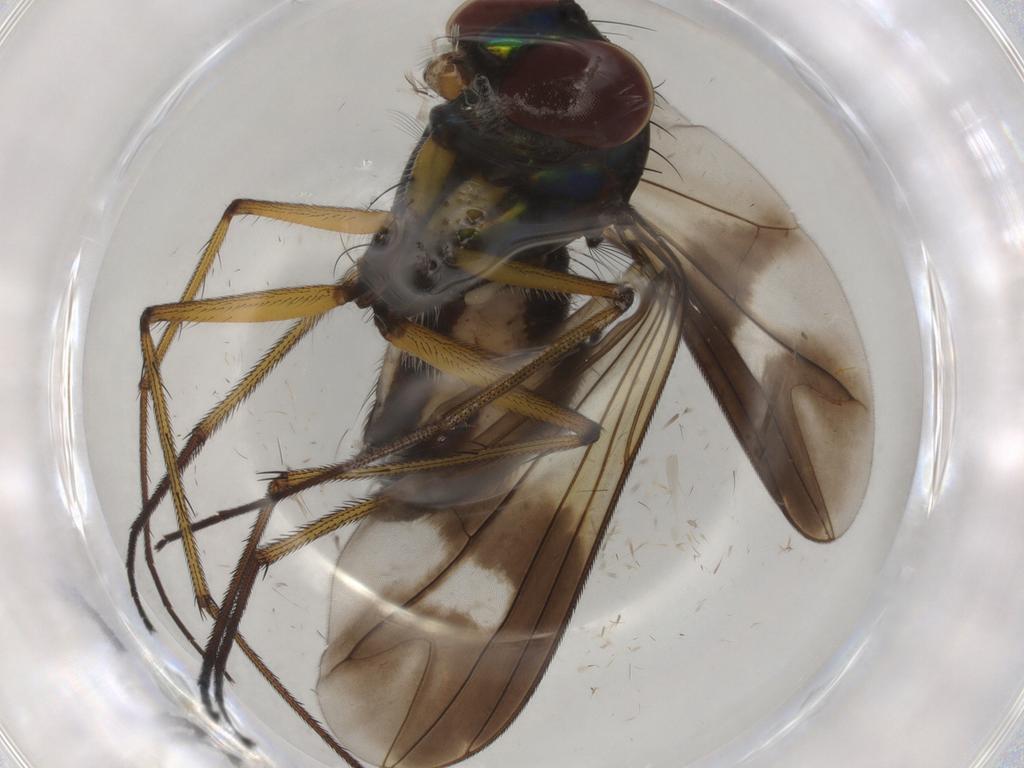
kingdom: Animalia
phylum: Arthropoda
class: Insecta
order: Diptera
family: Dolichopodidae
